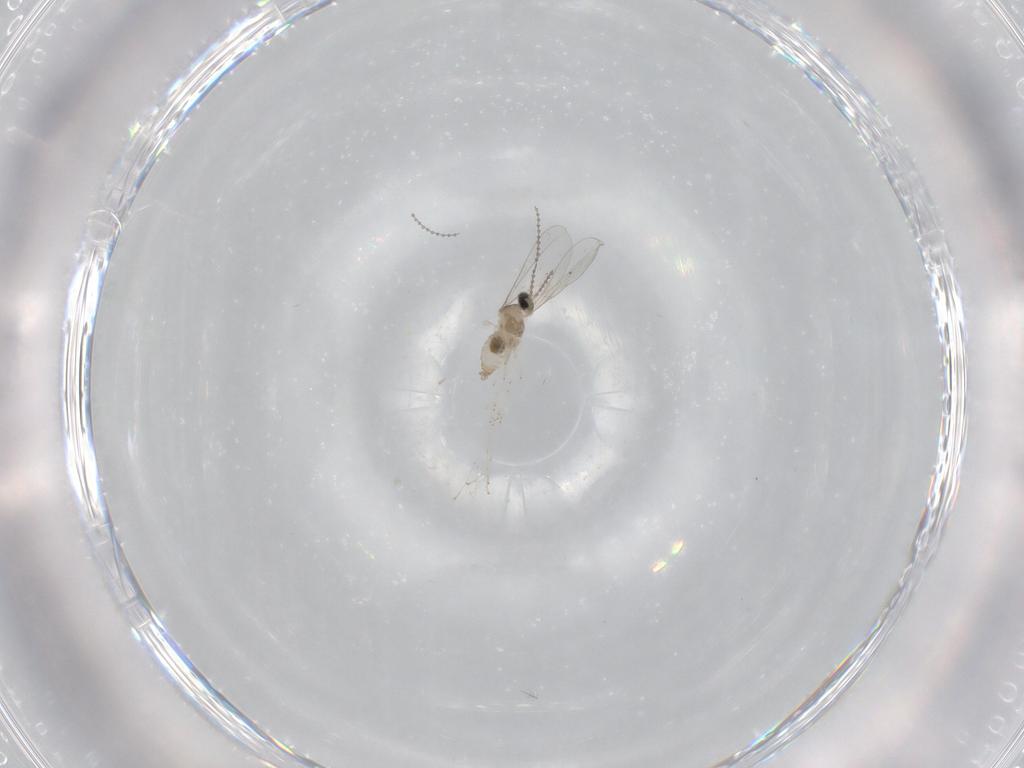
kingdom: Animalia
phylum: Arthropoda
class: Insecta
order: Diptera
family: Cecidomyiidae
